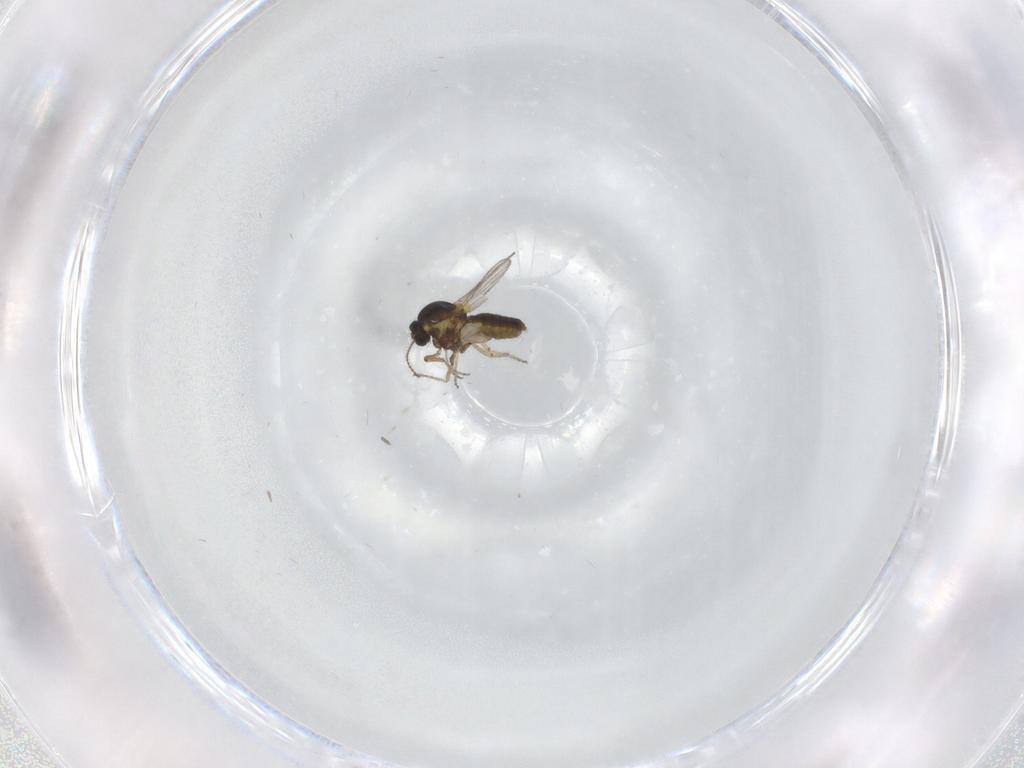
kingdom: Animalia
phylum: Arthropoda
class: Insecta
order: Diptera
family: Ceratopogonidae
